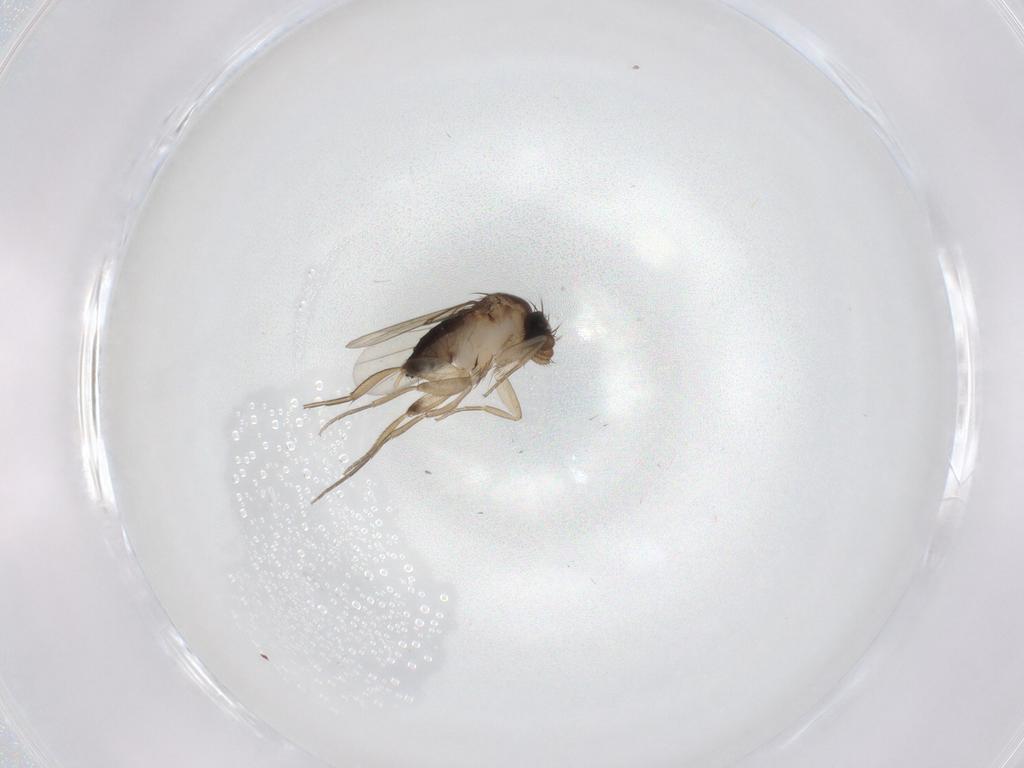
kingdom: Animalia
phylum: Arthropoda
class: Insecta
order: Diptera
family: Phoridae
